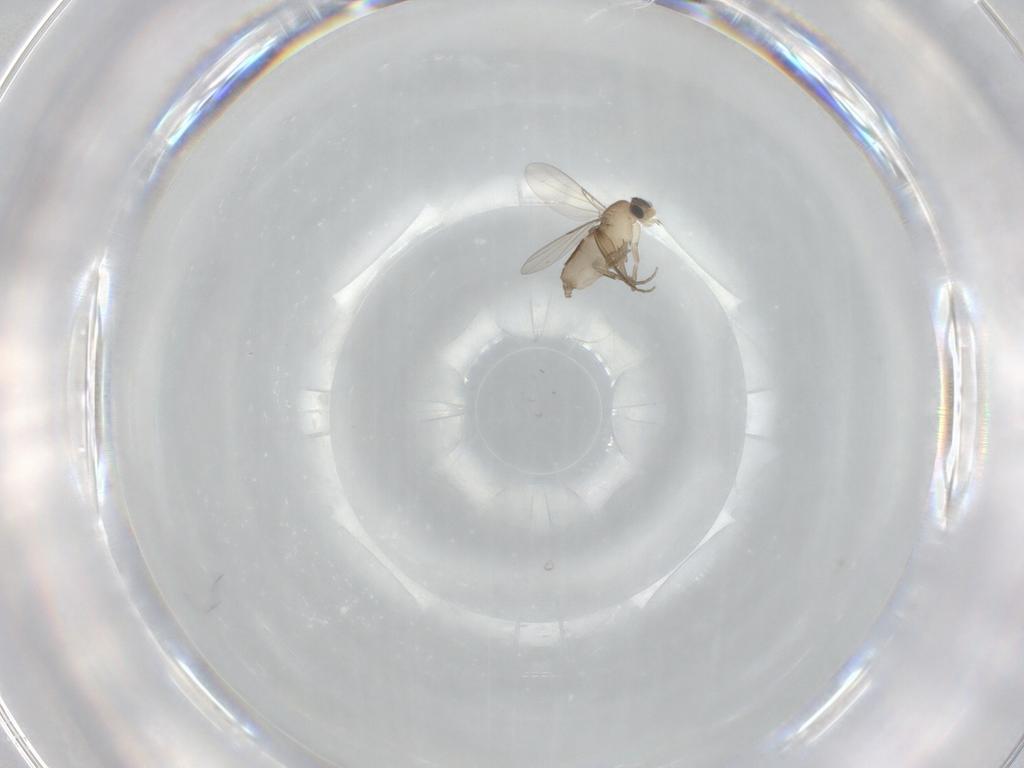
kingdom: Animalia
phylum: Arthropoda
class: Insecta
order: Diptera
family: Phoridae
